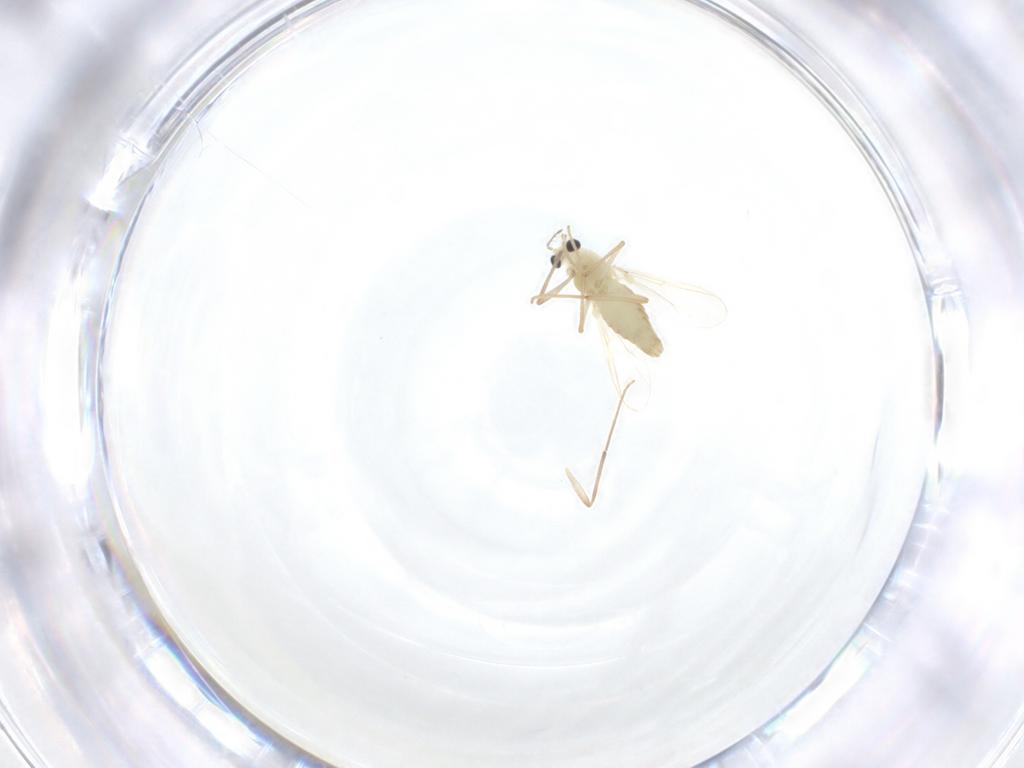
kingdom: Animalia
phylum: Arthropoda
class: Insecta
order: Diptera
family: Chironomidae
